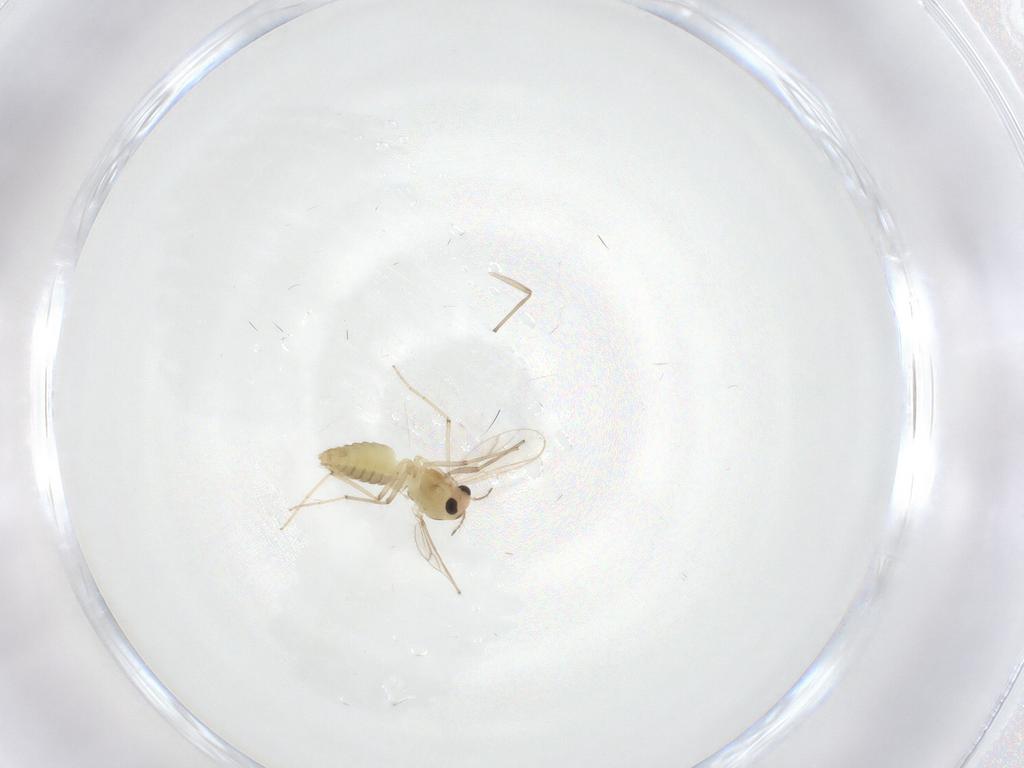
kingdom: Animalia
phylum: Arthropoda
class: Insecta
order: Diptera
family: Chironomidae
